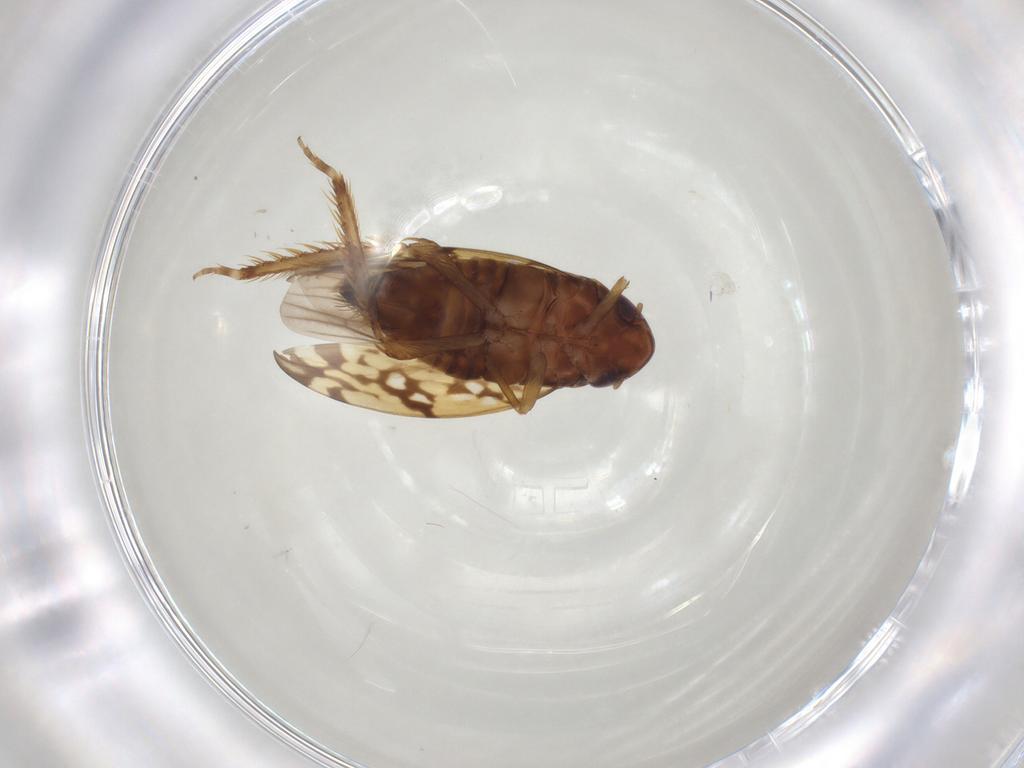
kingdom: Animalia
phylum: Arthropoda
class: Insecta
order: Hemiptera
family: Cicadellidae
